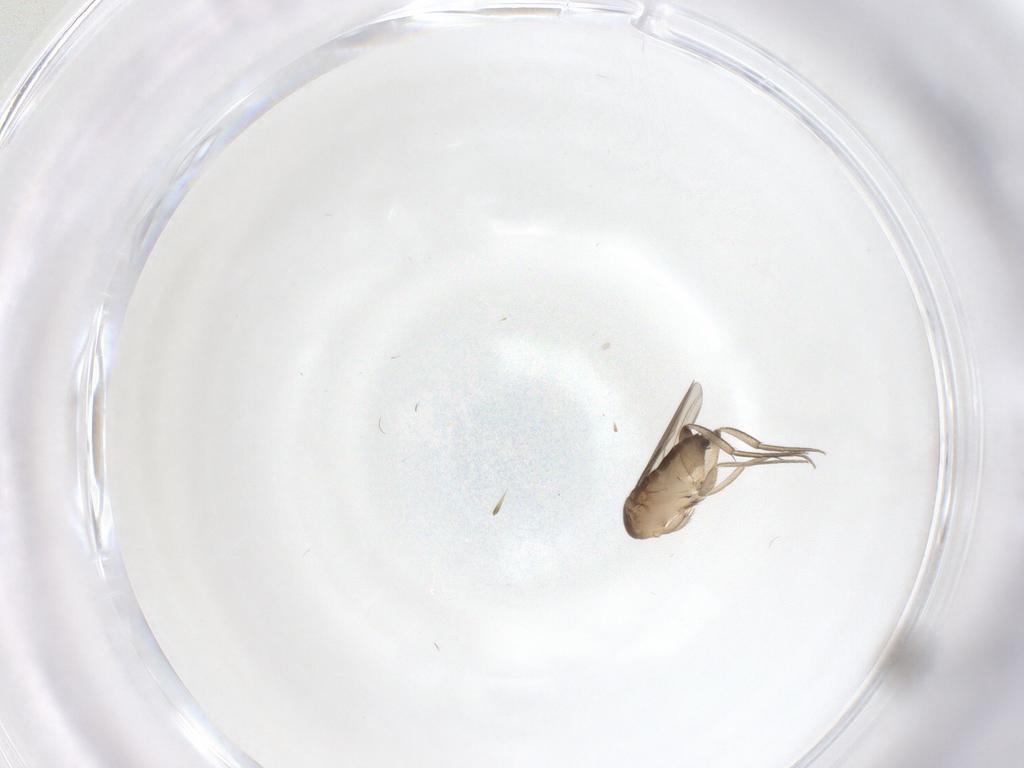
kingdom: Animalia
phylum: Arthropoda
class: Insecta
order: Diptera
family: Phoridae
